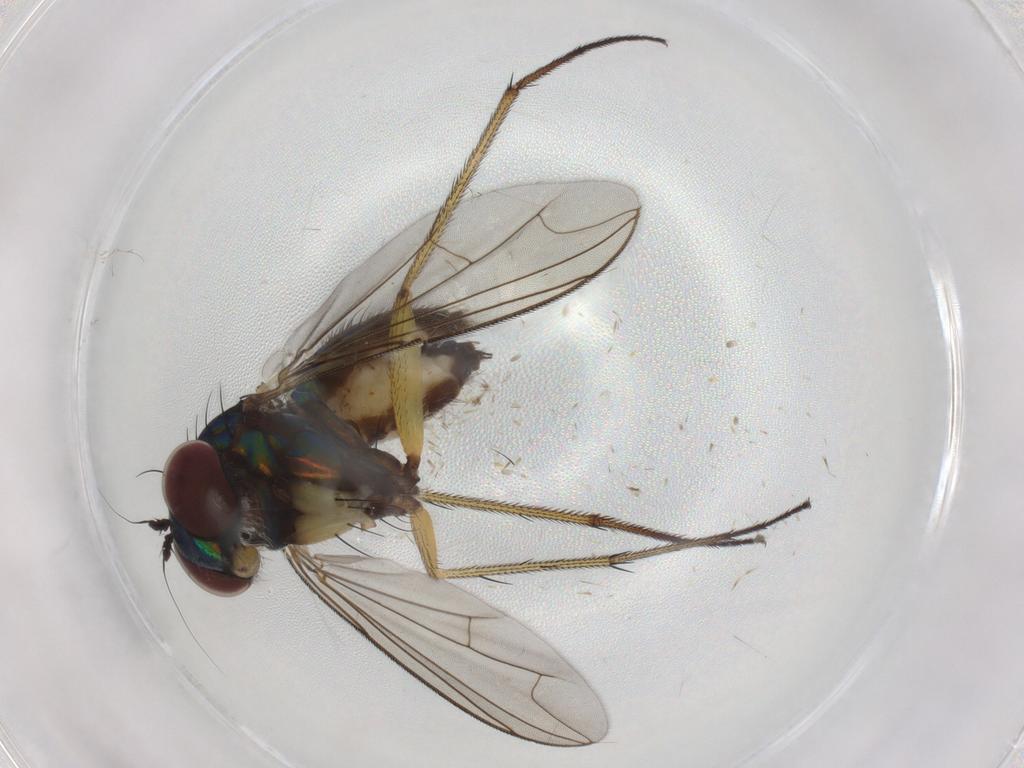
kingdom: Animalia
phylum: Arthropoda
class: Insecta
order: Diptera
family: Dolichopodidae
